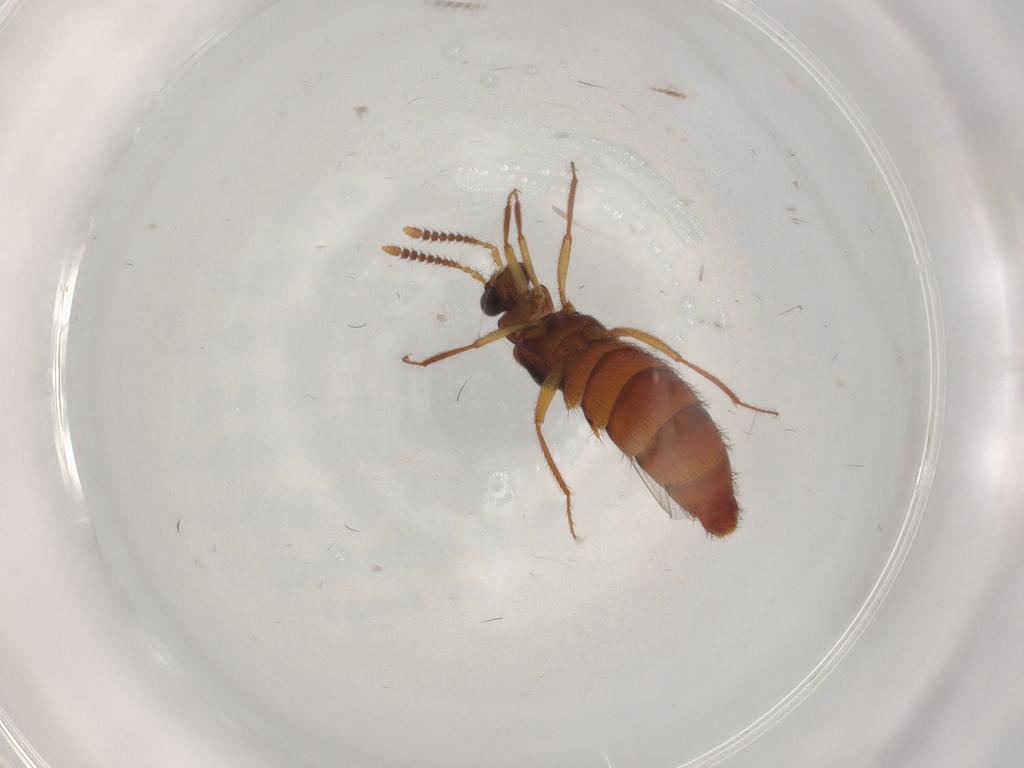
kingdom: Animalia
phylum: Arthropoda
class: Insecta
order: Coleoptera
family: Staphylinidae
